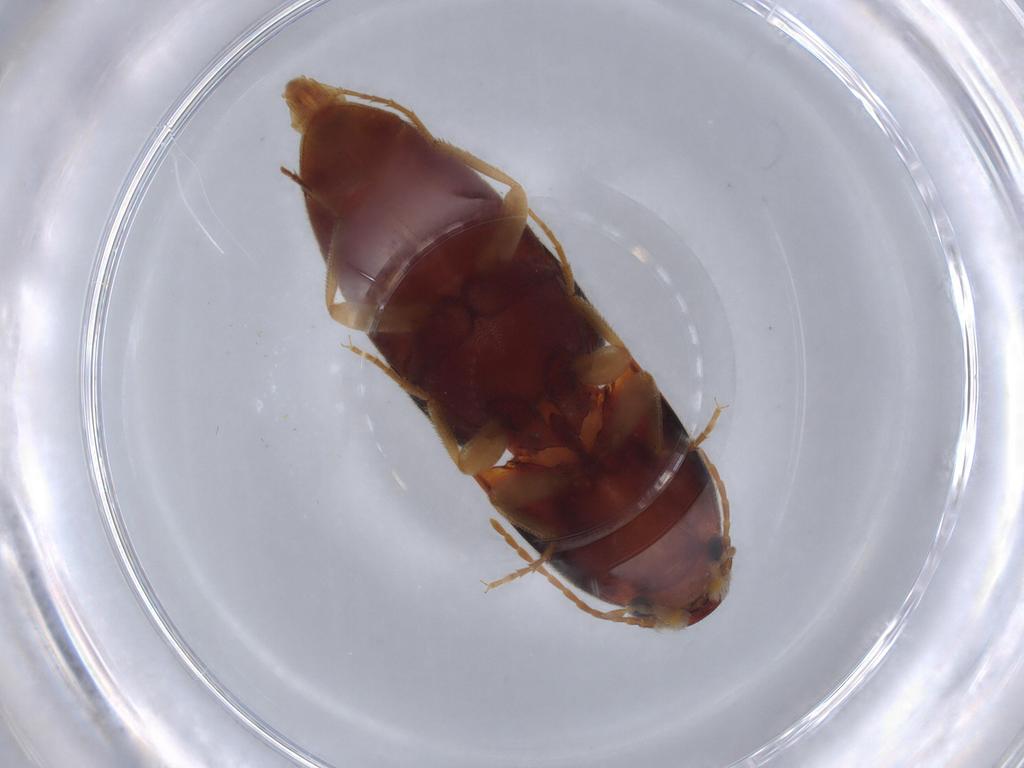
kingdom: Animalia
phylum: Arthropoda
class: Insecta
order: Coleoptera
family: Elateridae
